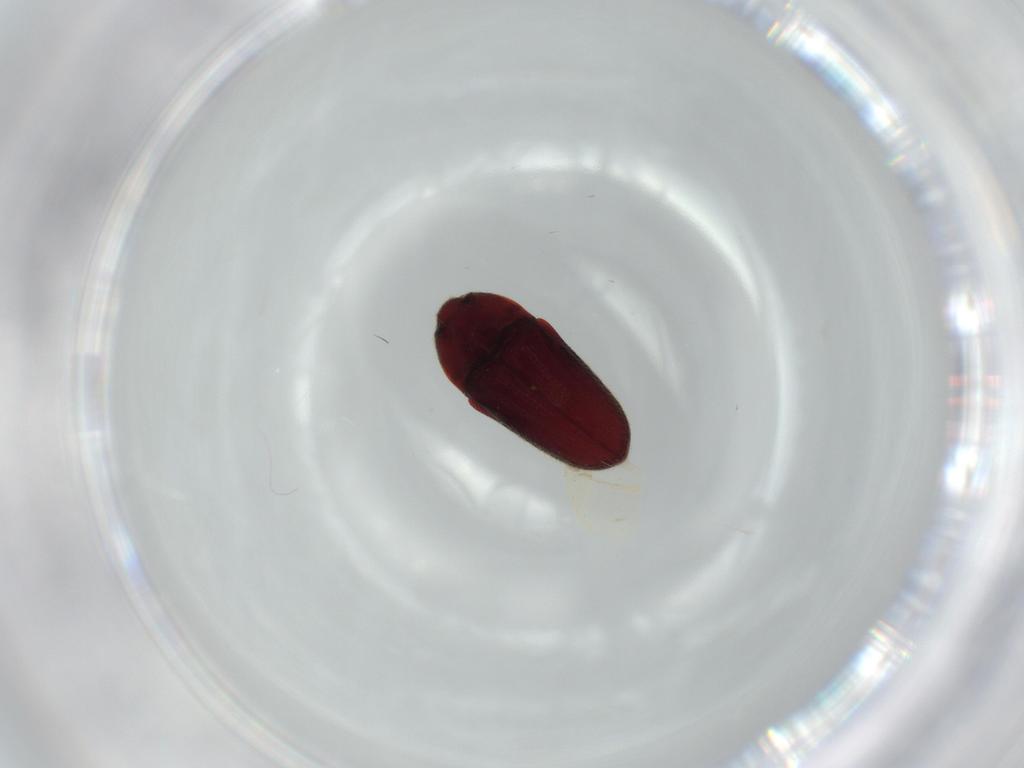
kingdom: Animalia
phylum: Arthropoda
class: Insecta
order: Coleoptera
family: Throscidae
